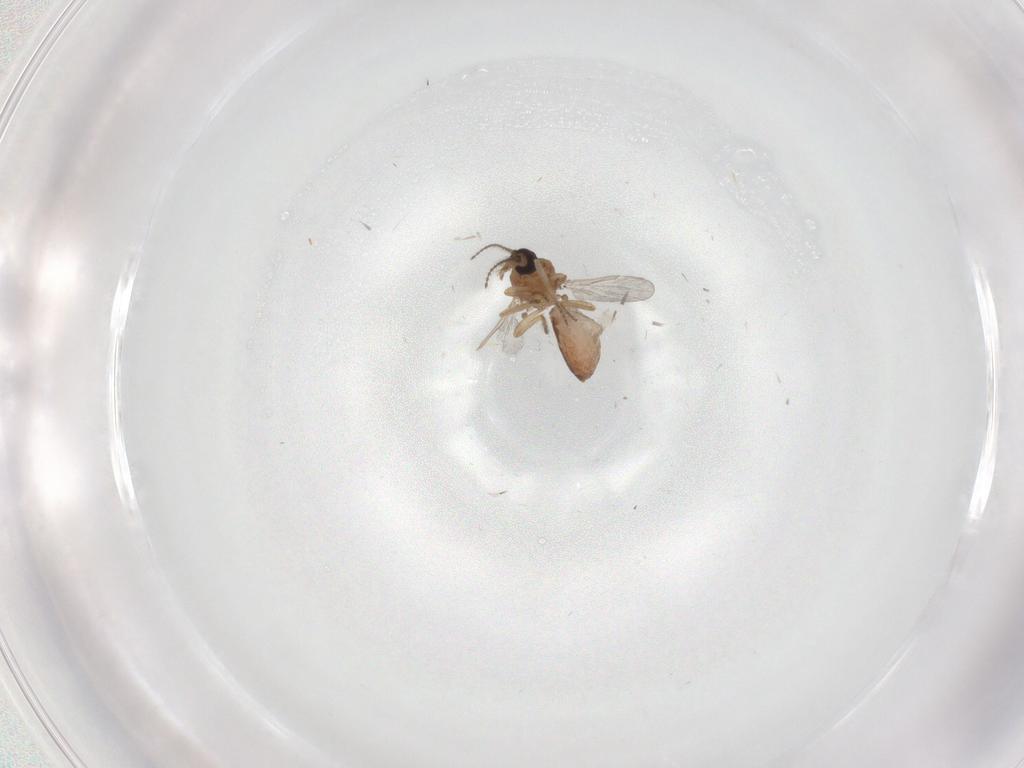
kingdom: Animalia
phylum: Arthropoda
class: Insecta
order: Diptera
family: Ceratopogonidae
